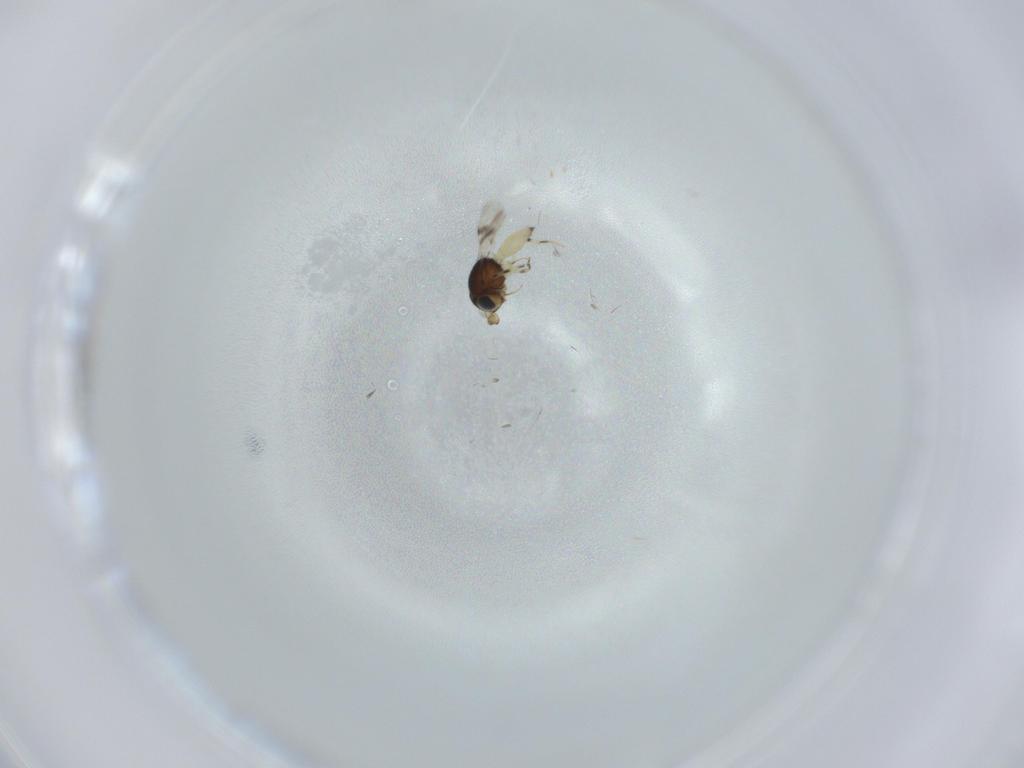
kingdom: Animalia
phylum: Arthropoda
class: Insecta
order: Hymenoptera
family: Scelionidae
